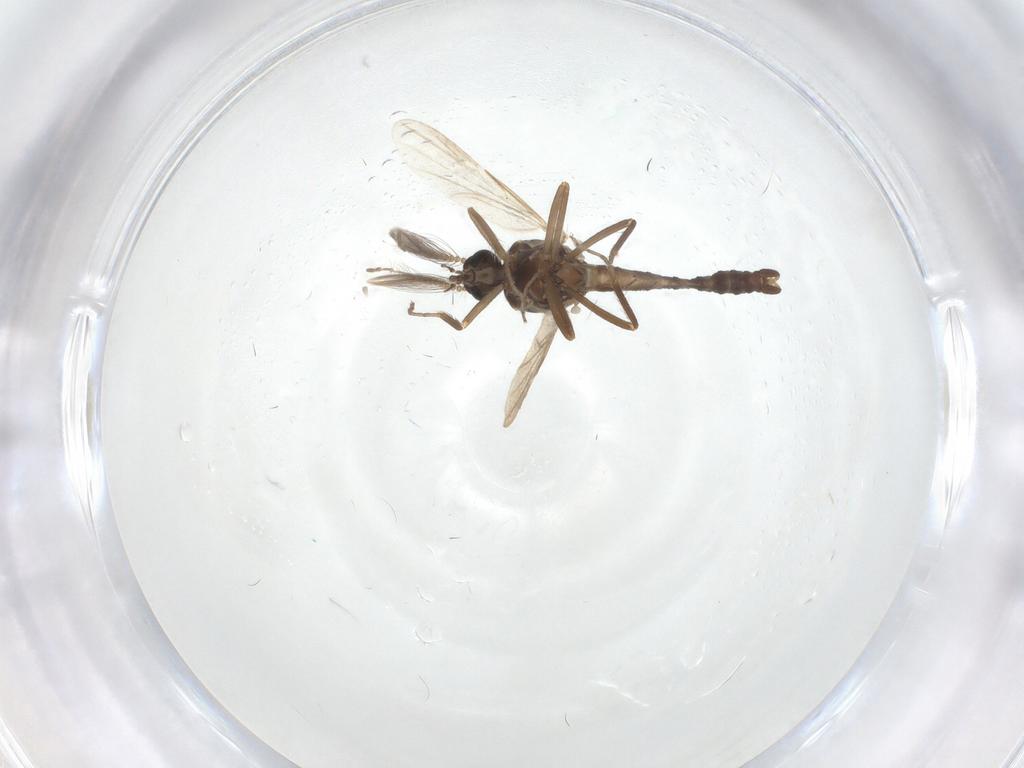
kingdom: Animalia
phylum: Arthropoda
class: Insecta
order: Diptera
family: Ceratopogonidae
